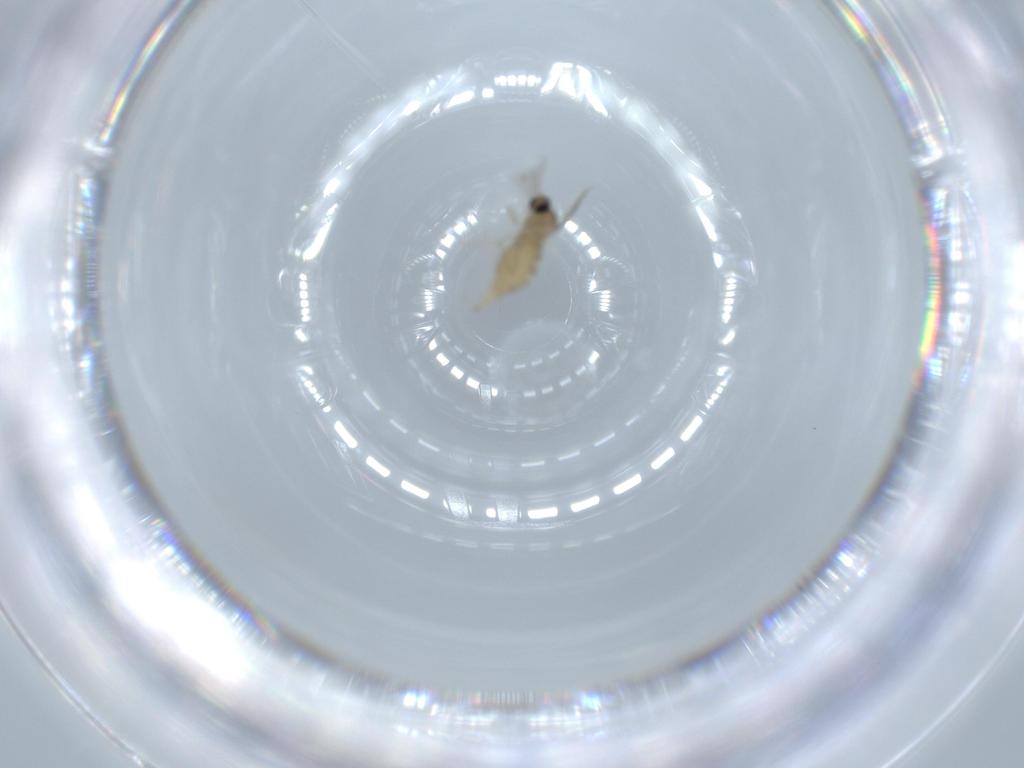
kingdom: Animalia
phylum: Arthropoda
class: Insecta
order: Diptera
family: Cecidomyiidae
